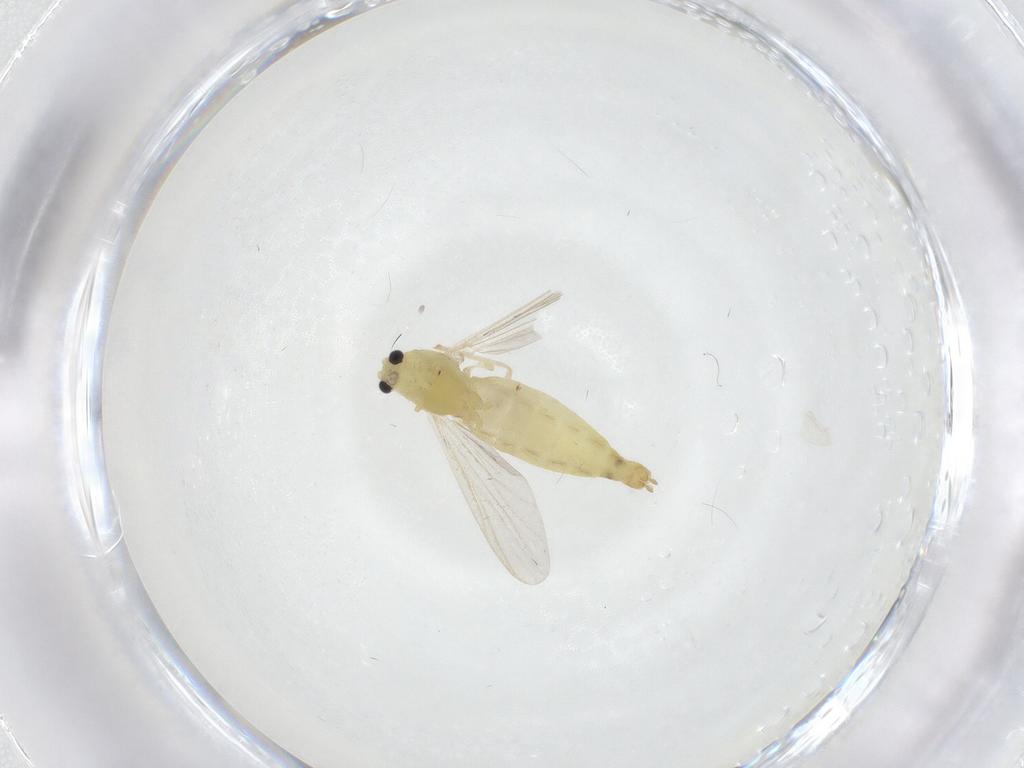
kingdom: Animalia
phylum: Arthropoda
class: Insecta
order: Diptera
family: Chironomidae
